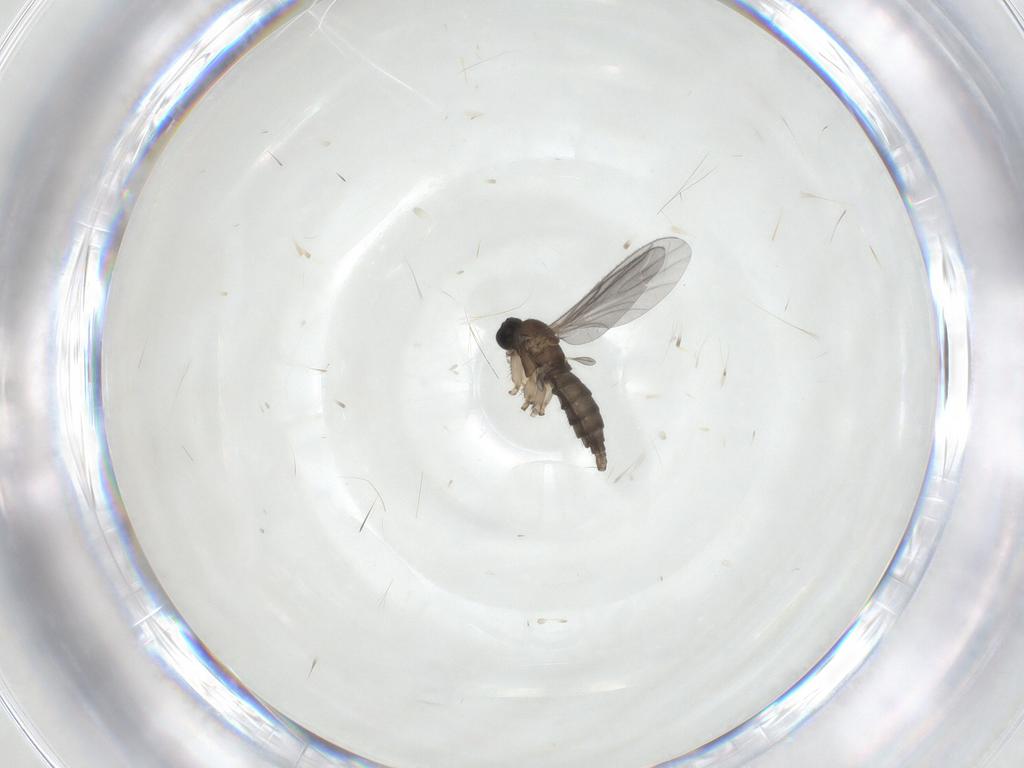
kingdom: Animalia
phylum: Arthropoda
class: Insecta
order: Diptera
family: Sciaridae
